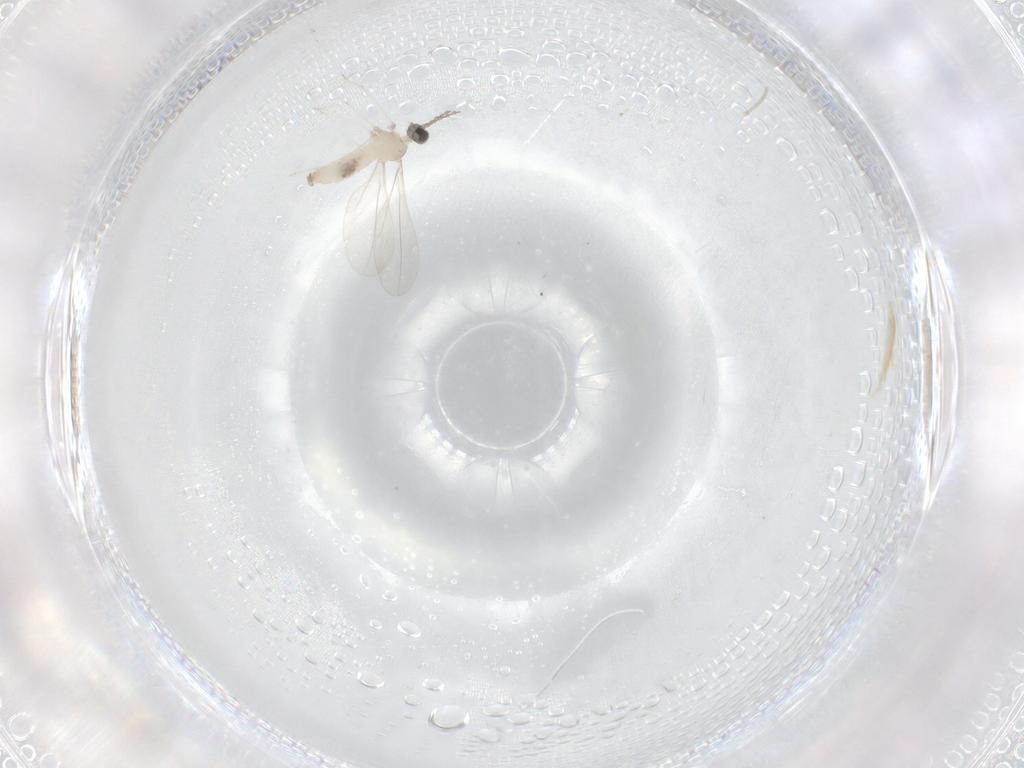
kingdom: Animalia
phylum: Arthropoda
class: Insecta
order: Diptera
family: Cecidomyiidae
